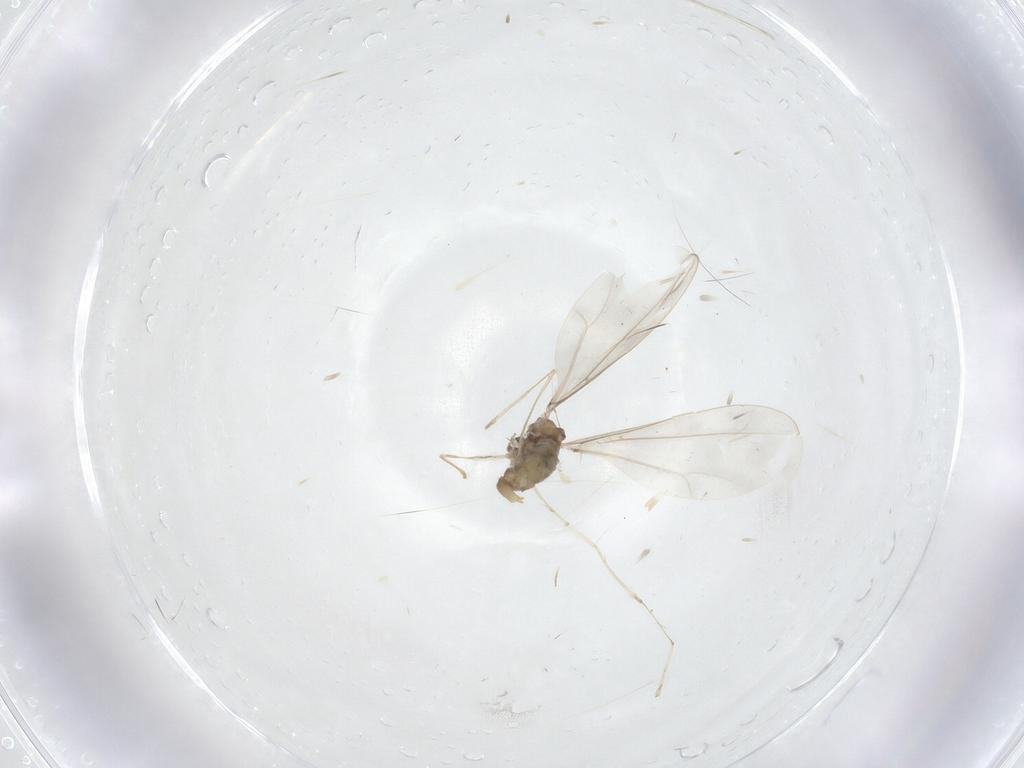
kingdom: Animalia
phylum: Arthropoda
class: Insecta
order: Diptera
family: Cecidomyiidae
